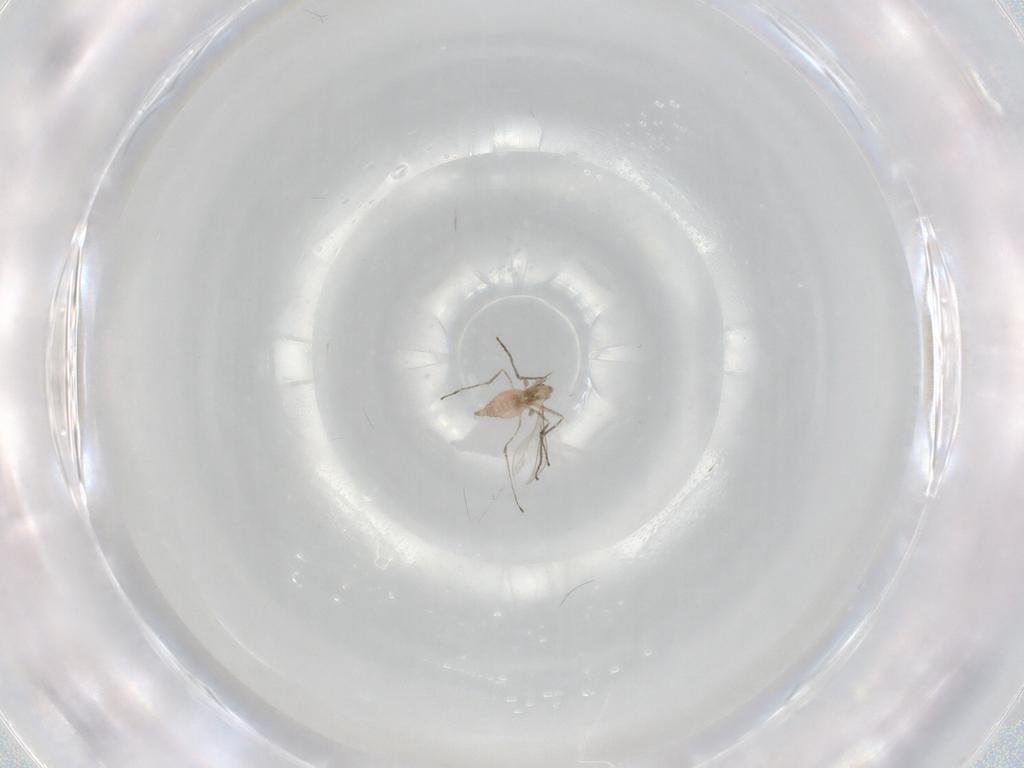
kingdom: Animalia
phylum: Arthropoda
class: Insecta
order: Diptera
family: Cecidomyiidae
